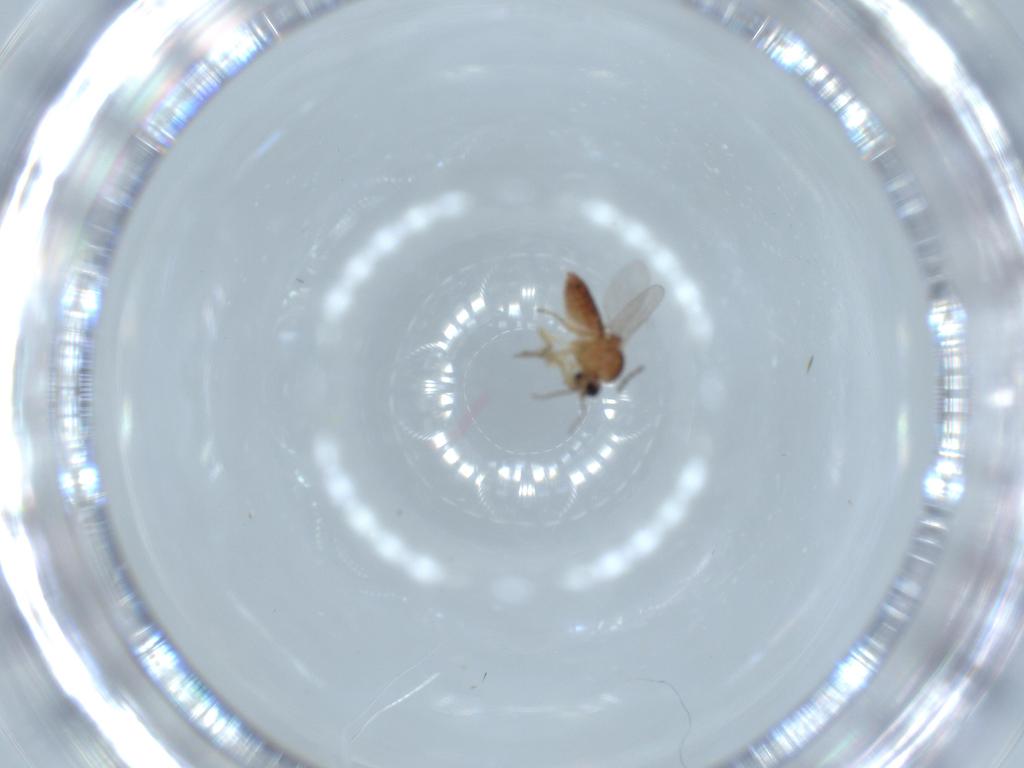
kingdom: Animalia
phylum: Arthropoda
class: Insecta
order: Diptera
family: Ceratopogonidae
